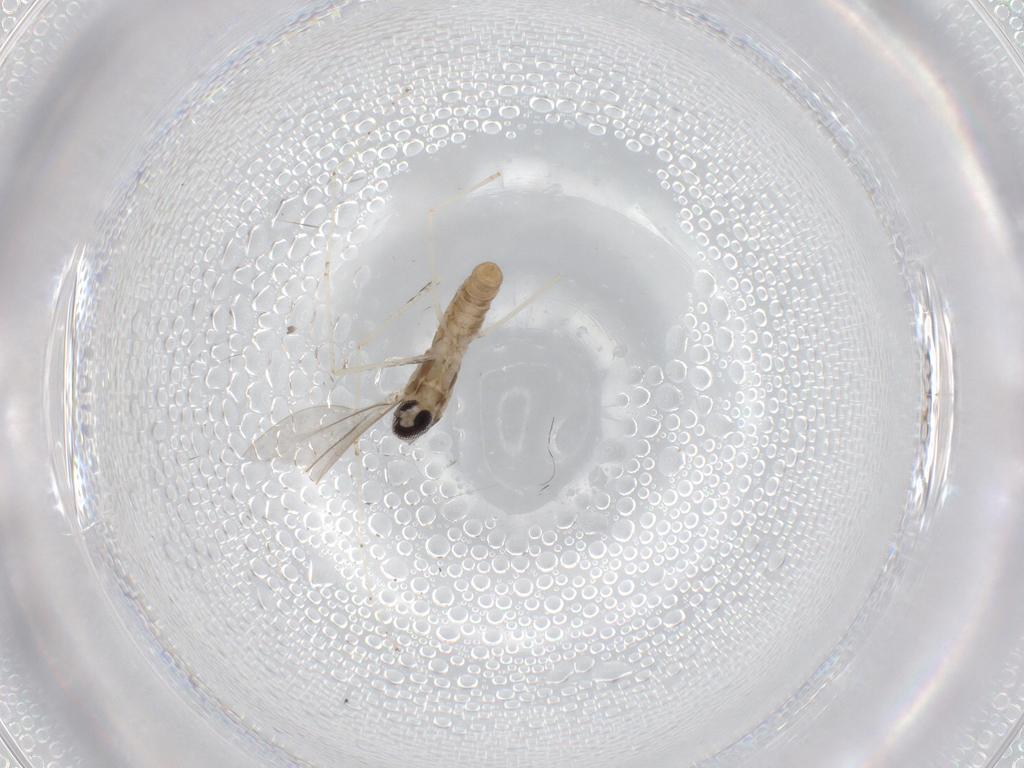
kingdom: Animalia
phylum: Arthropoda
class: Insecta
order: Diptera
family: Cecidomyiidae
